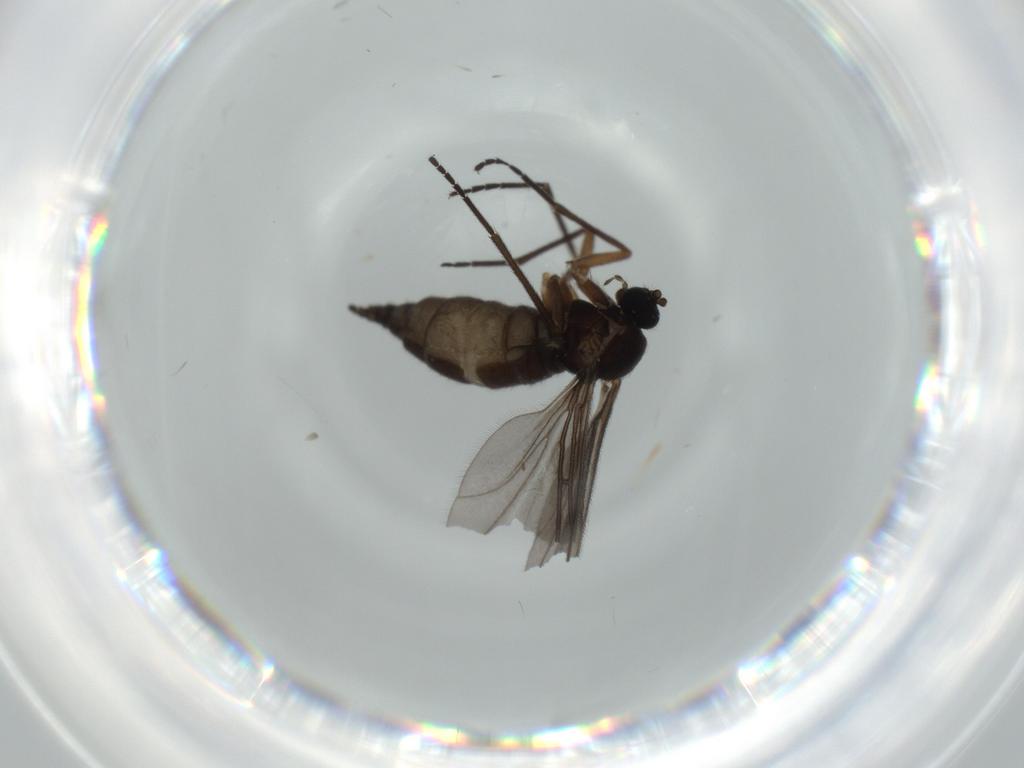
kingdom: Animalia
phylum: Arthropoda
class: Insecta
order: Diptera
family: Sciaridae
